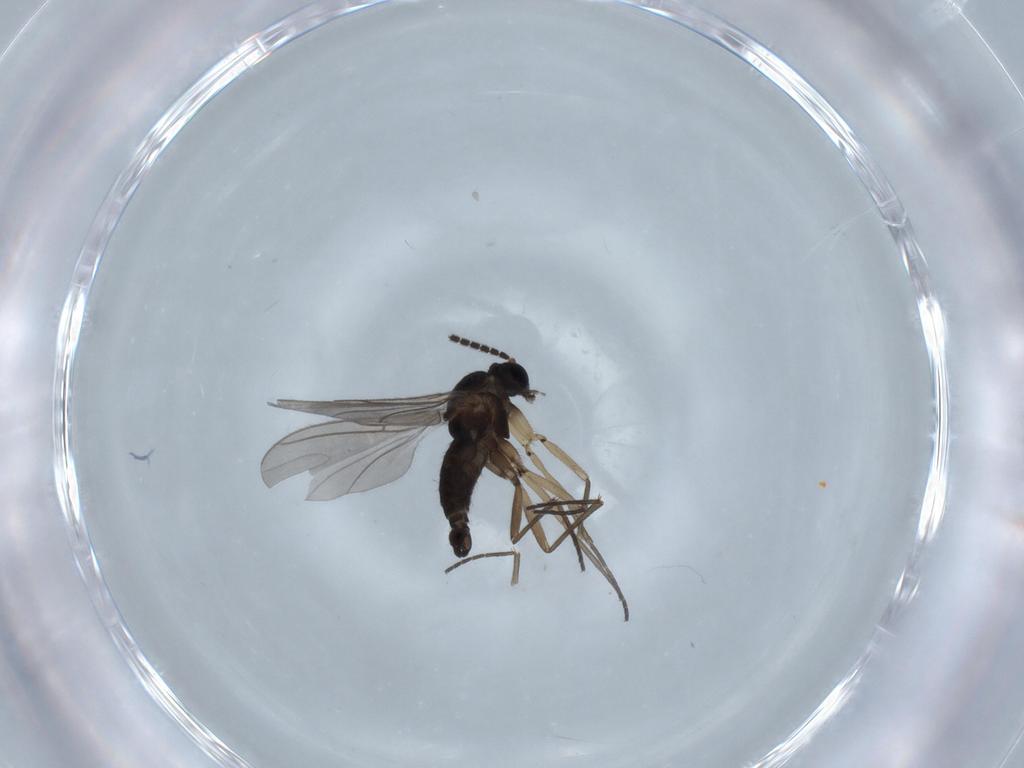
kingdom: Animalia
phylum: Arthropoda
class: Insecta
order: Diptera
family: Sciaridae
